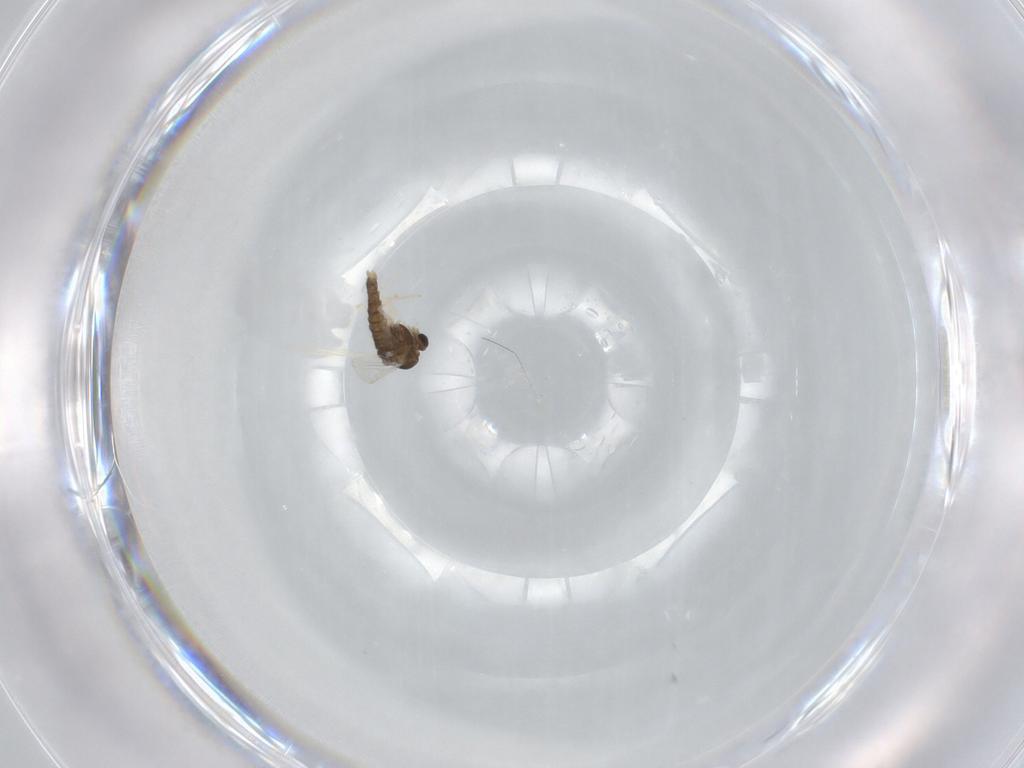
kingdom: Animalia
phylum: Arthropoda
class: Insecta
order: Diptera
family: Chironomidae
